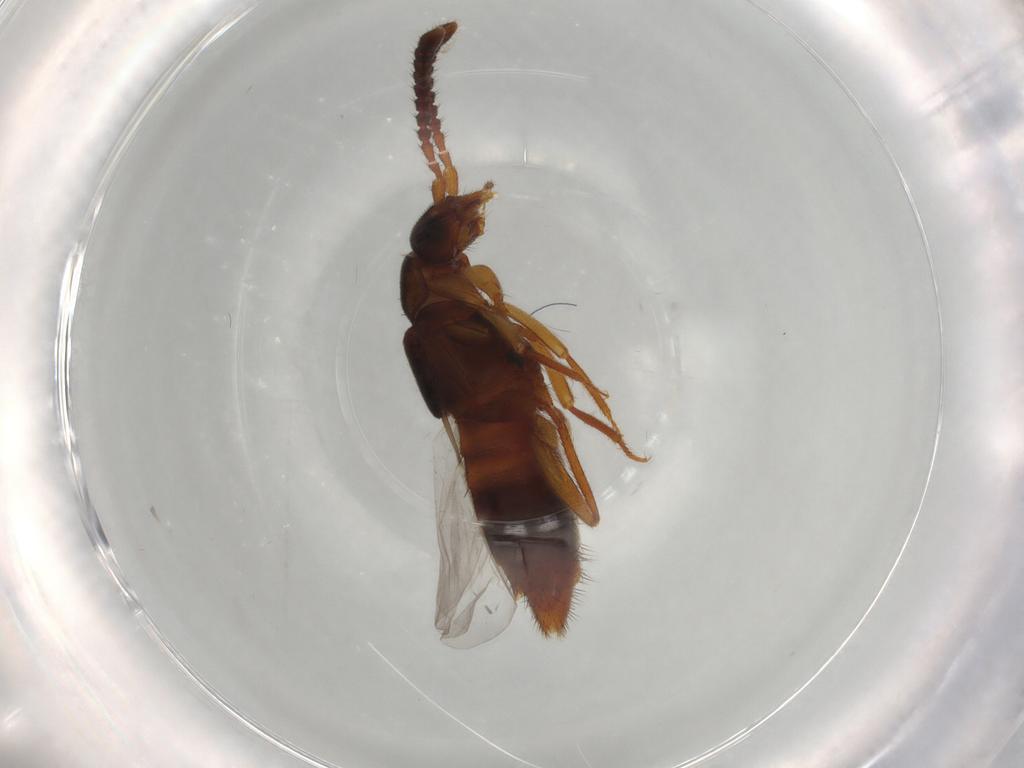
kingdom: Animalia
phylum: Arthropoda
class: Insecta
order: Coleoptera
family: Staphylinidae
